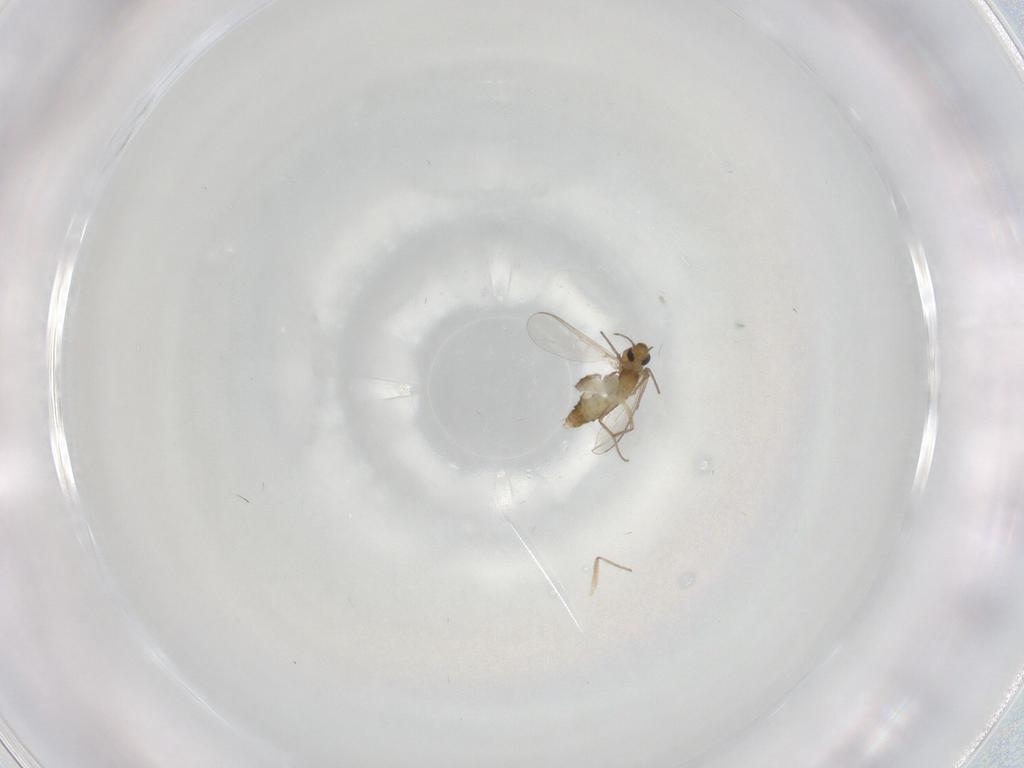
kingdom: Animalia
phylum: Arthropoda
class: Insecta
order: Diptera
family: Chironomidae
